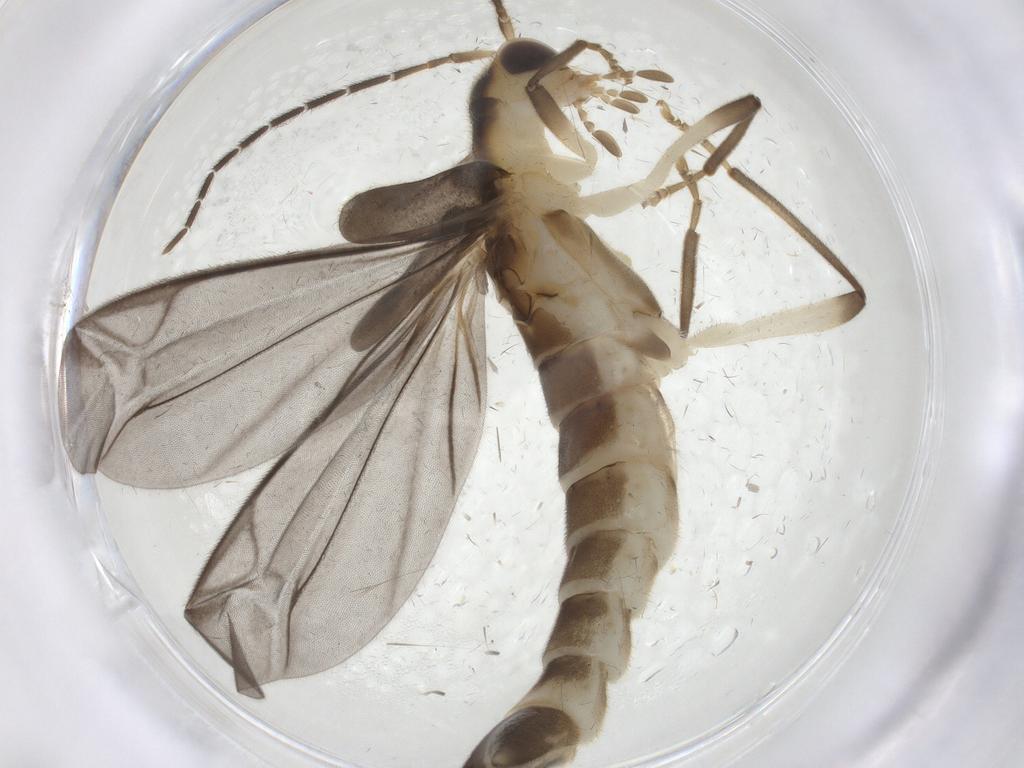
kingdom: Animalia
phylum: Arthropoda
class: Insecta
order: Coleoptera
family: Cantharidae
